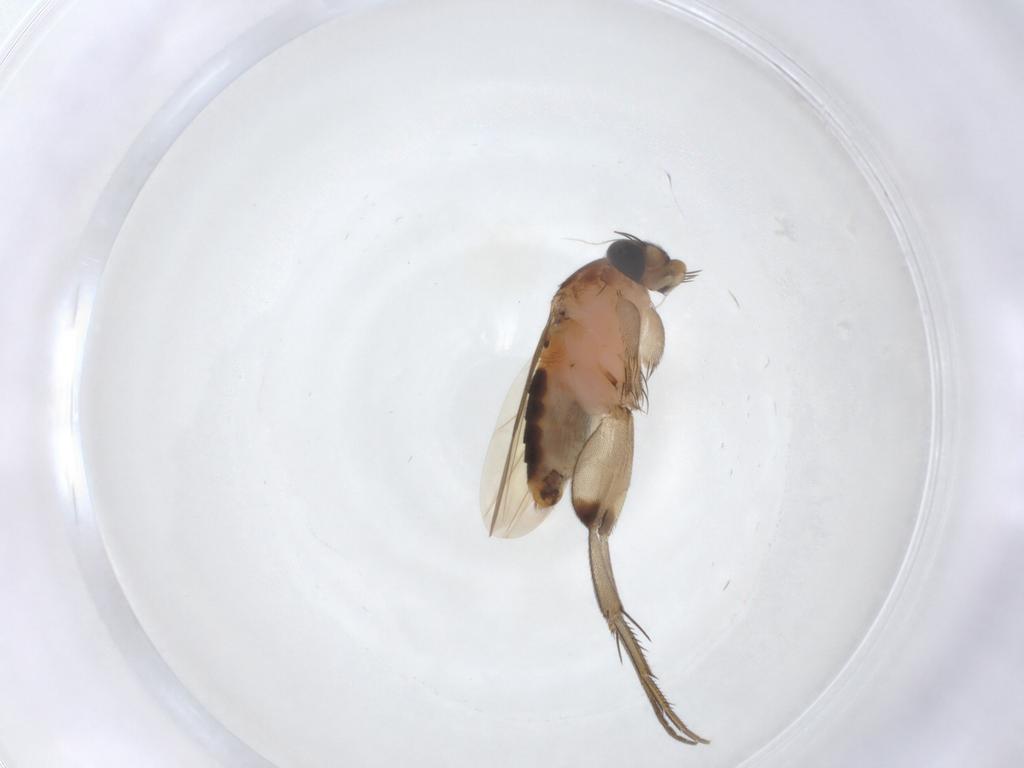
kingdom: Animalia
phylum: Arthropoda
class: Insecta
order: Diptera
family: Phoridae
